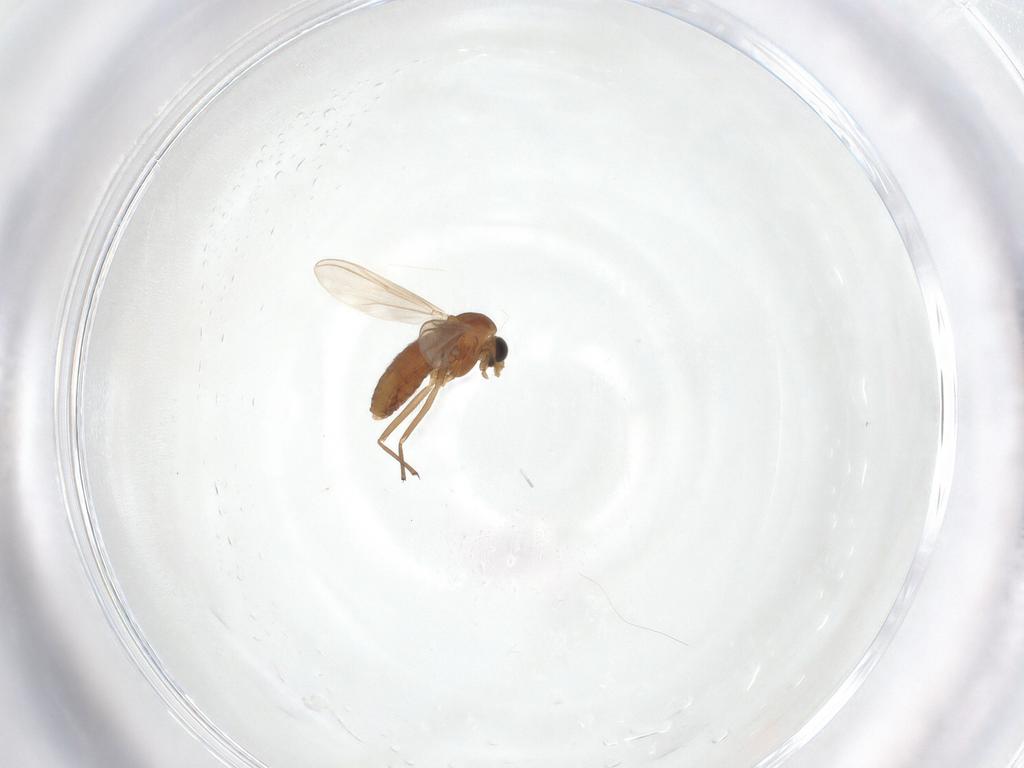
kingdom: Animalia
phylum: Arthropoda
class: Insecta
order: Diptera
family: Chironomidae
